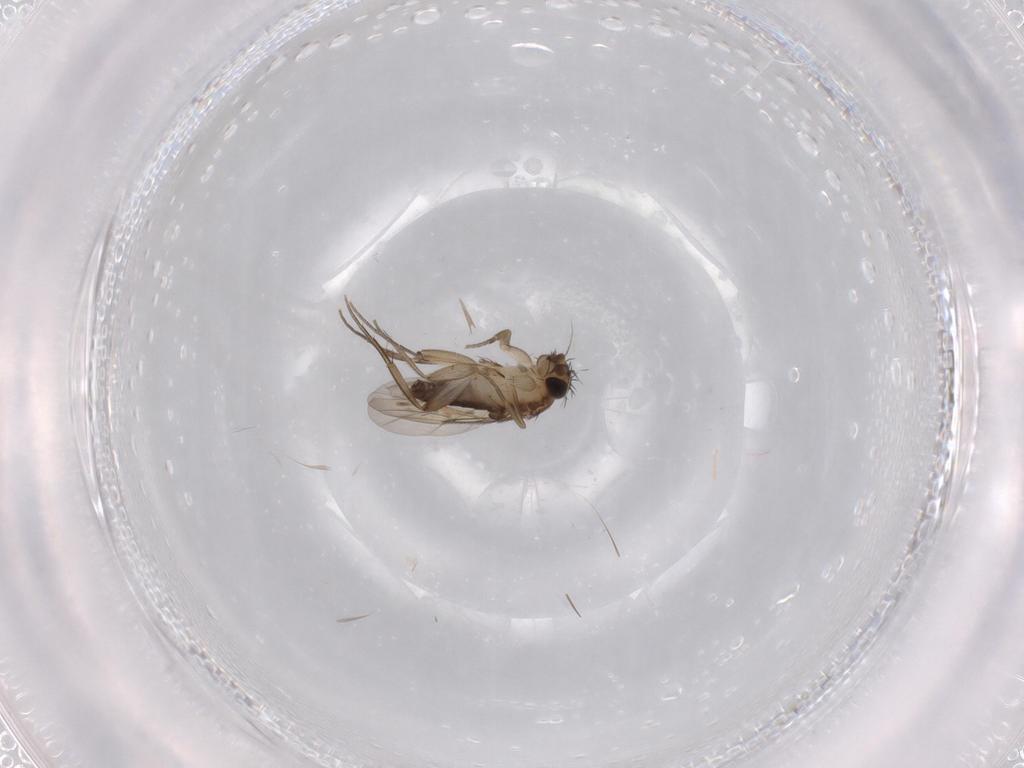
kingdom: Animalia
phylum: Arthropoda
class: Insecta
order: Diptera
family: Phoridae
